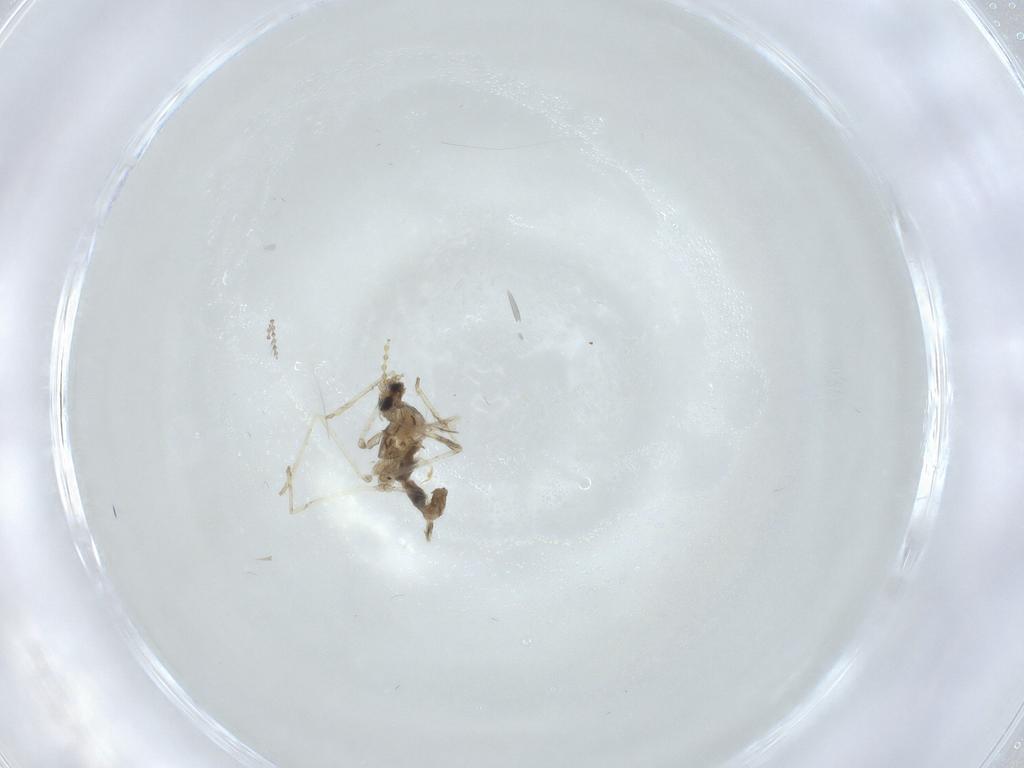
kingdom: Animalia
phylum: Arthropoda
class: Insecta
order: Diptera
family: Cecidomyiidae
